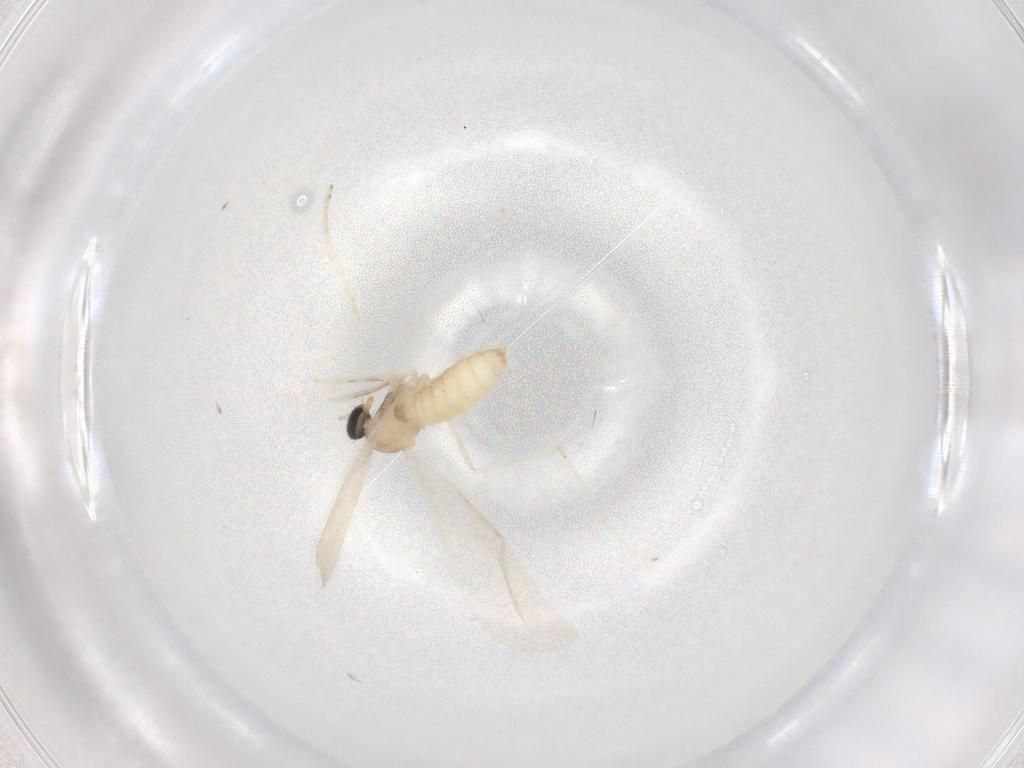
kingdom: Animalia
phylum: Arthropoda
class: Insecta
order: Diptera
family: Cecidomyiidae
